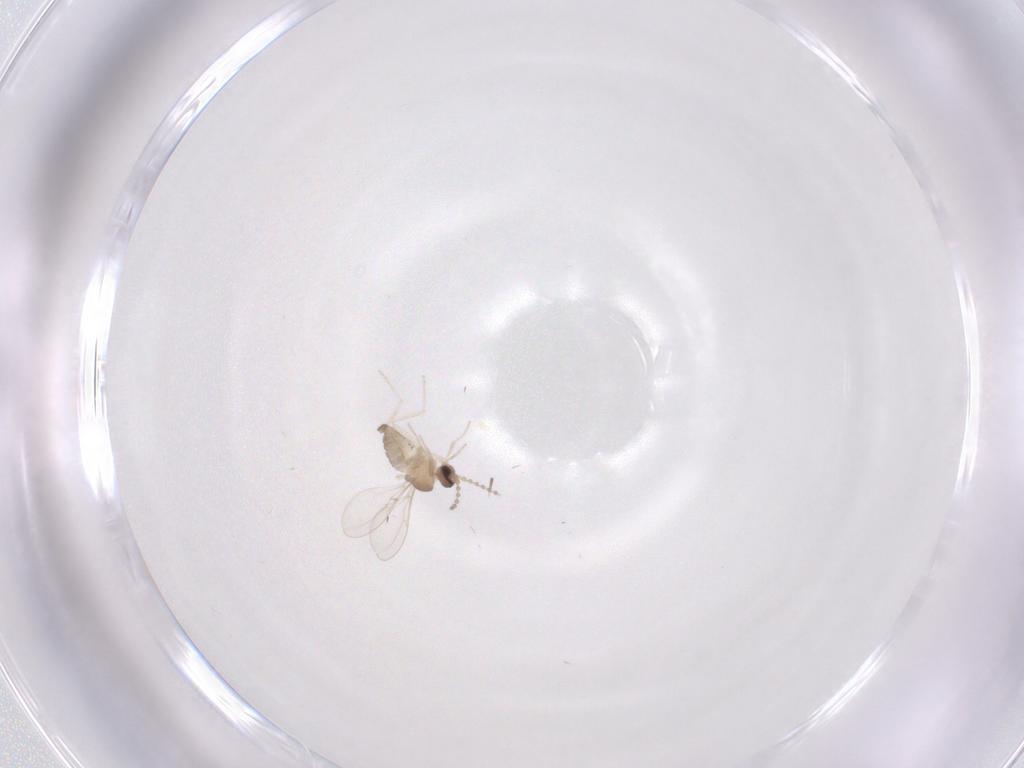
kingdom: Animalia
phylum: Arthropoda
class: Insecta
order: Diptera
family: Cecidomyiidae
